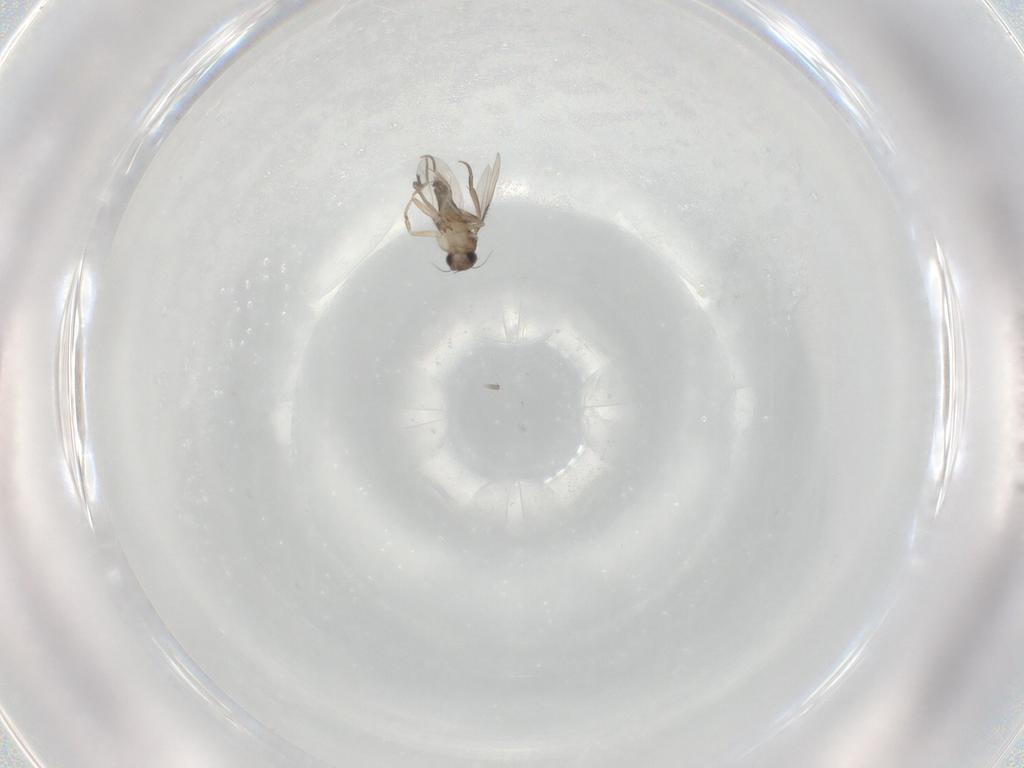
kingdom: Animalia
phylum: Arthropoda
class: Insecta
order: Diptera
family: Phoridae
